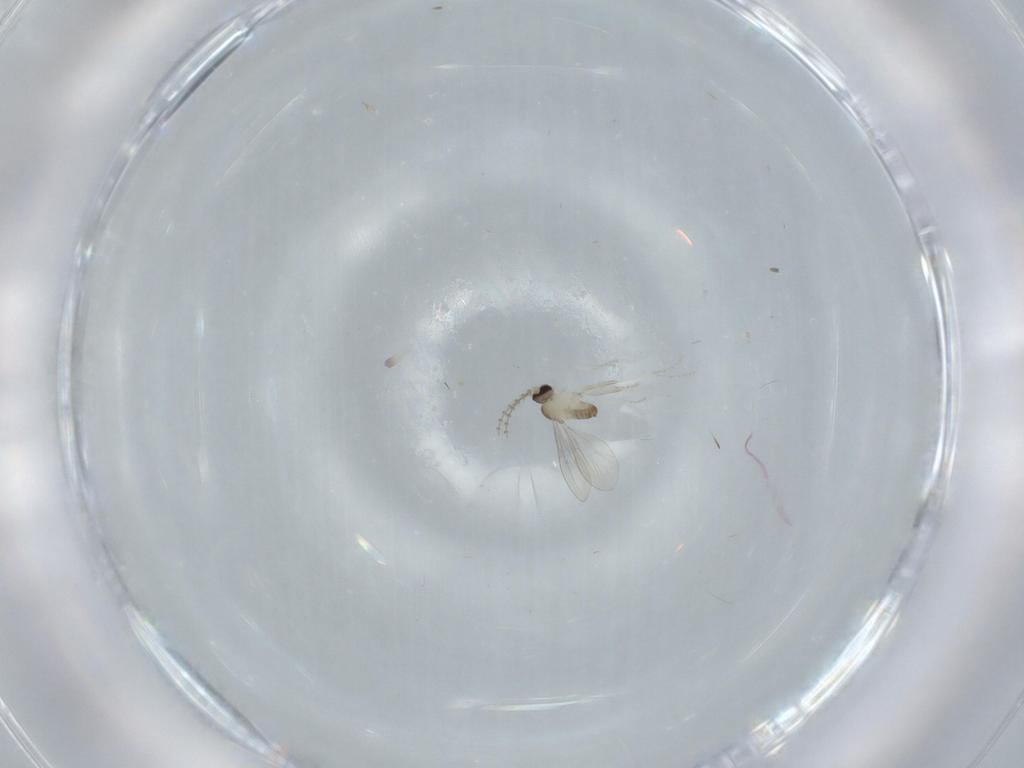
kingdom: Animalia
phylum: Arthropoda
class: Insecta
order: Diptera
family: Cecidomyiidae
